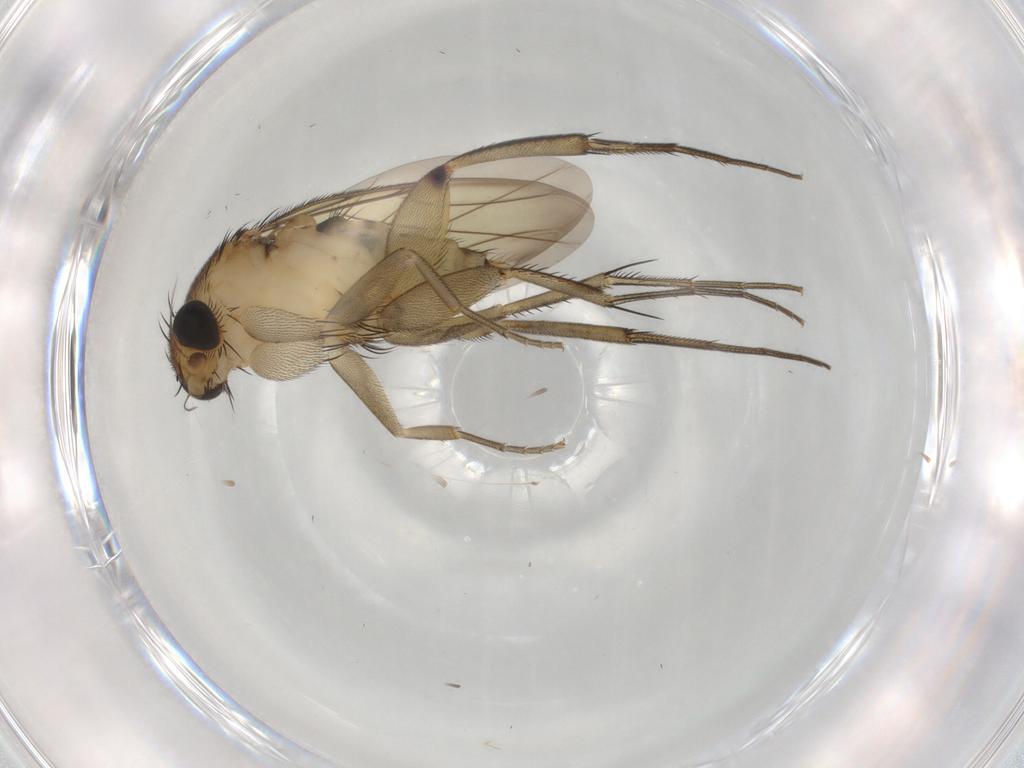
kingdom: Animalia
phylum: Arthropoda
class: Insecta
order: Diptera
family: Phoridae
